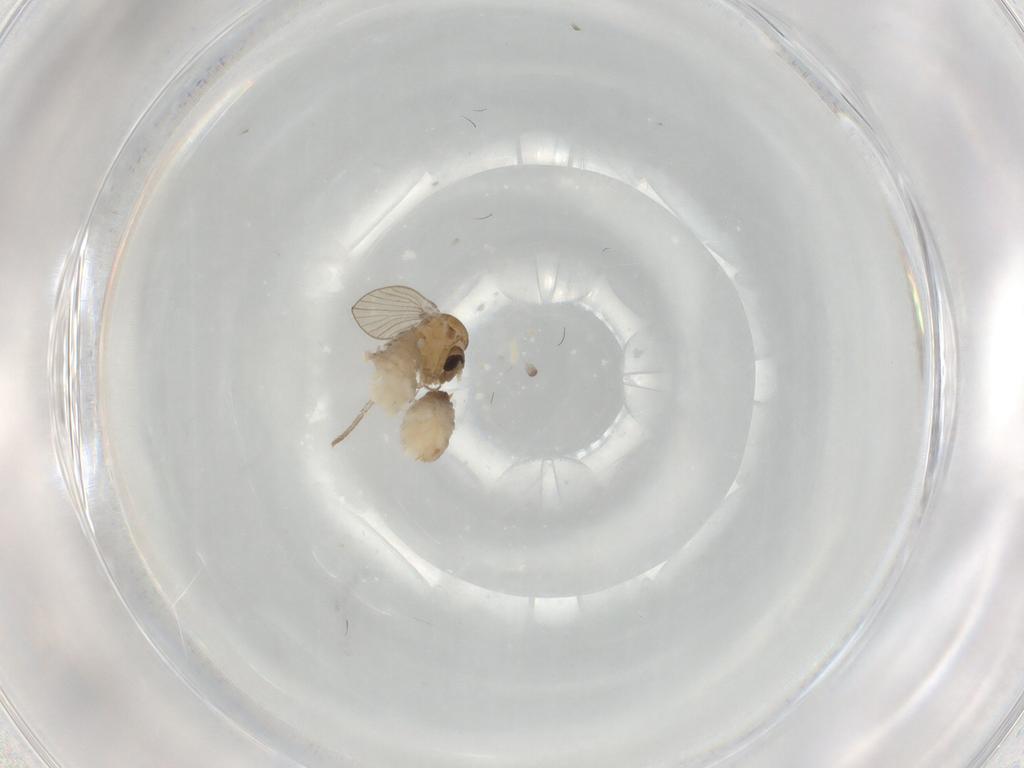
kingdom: Animalia
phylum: Arthropoda
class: Insecta
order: Diptera
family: Psychodidae
